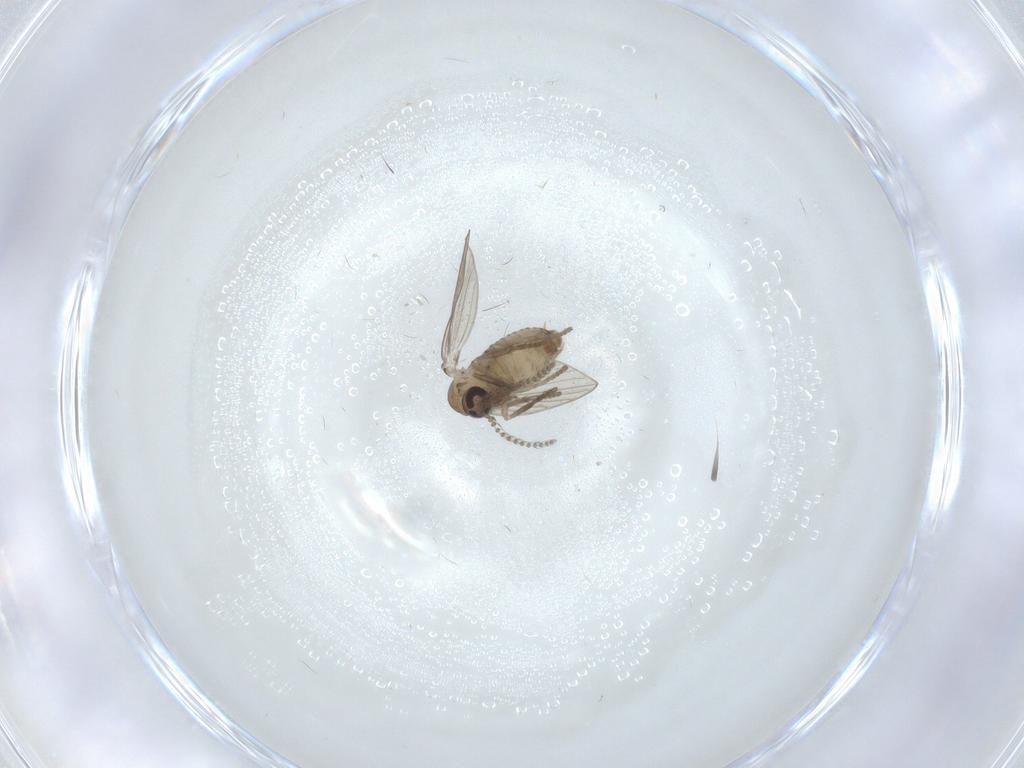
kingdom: Animalia
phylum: Arthropoda
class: Insecta
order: Diptera
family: Cecidomyiidae
